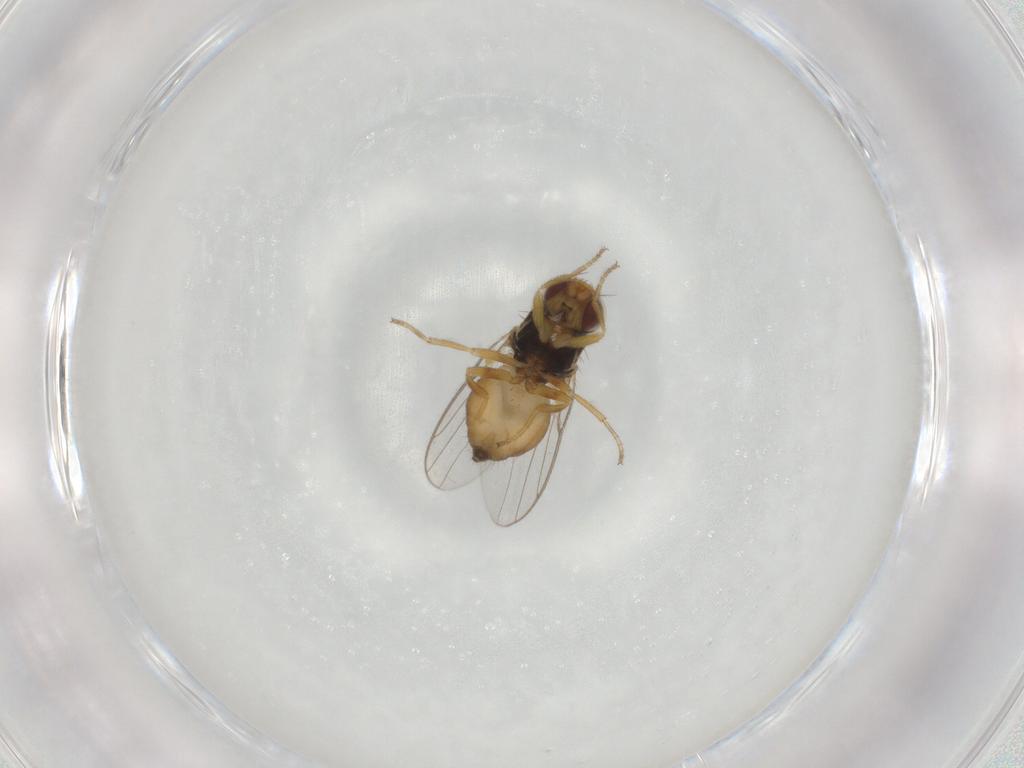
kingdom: Animalia
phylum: Arthropoda
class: Insecta
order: Diptera
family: Chloropidae
